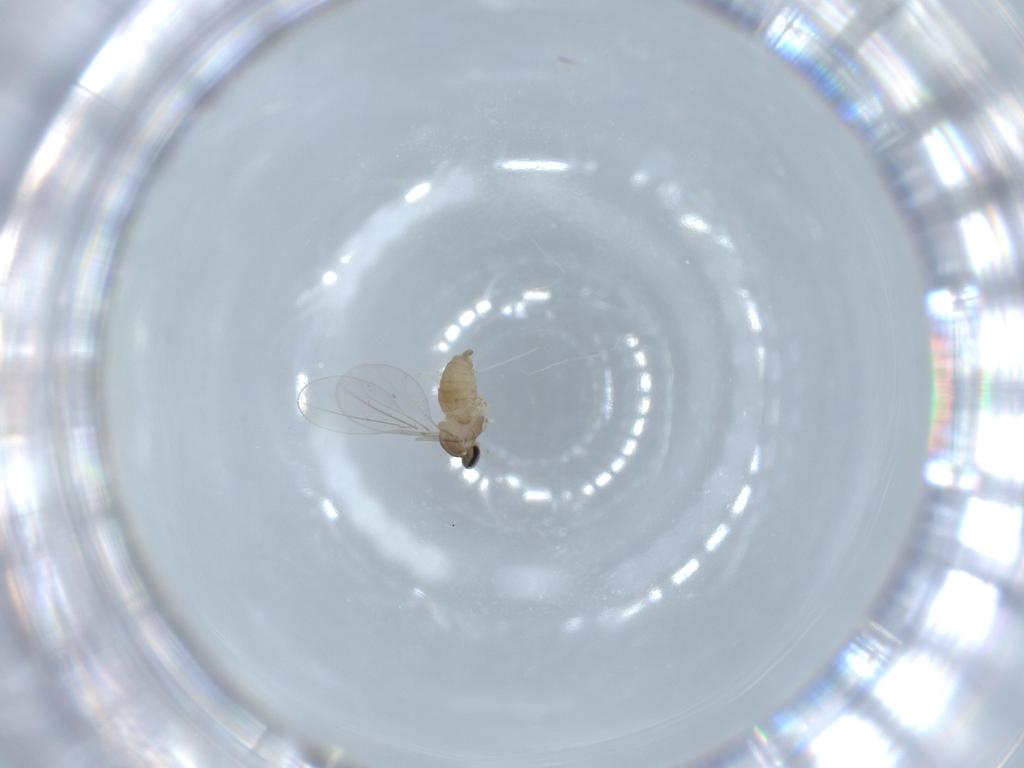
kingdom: Animalia
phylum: Arthropoda
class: Insecta
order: Diptera
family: Cecidomyiidae
